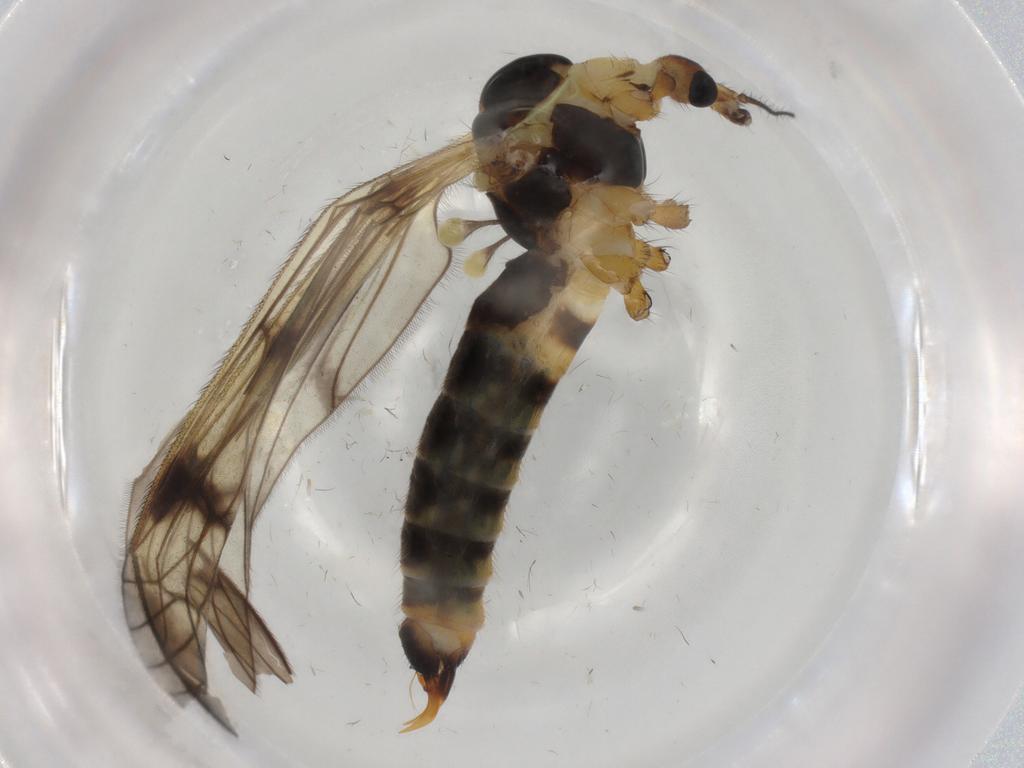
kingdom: Animalia
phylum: Arthropoda
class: Insecta
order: Diptera
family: Limoniidae
